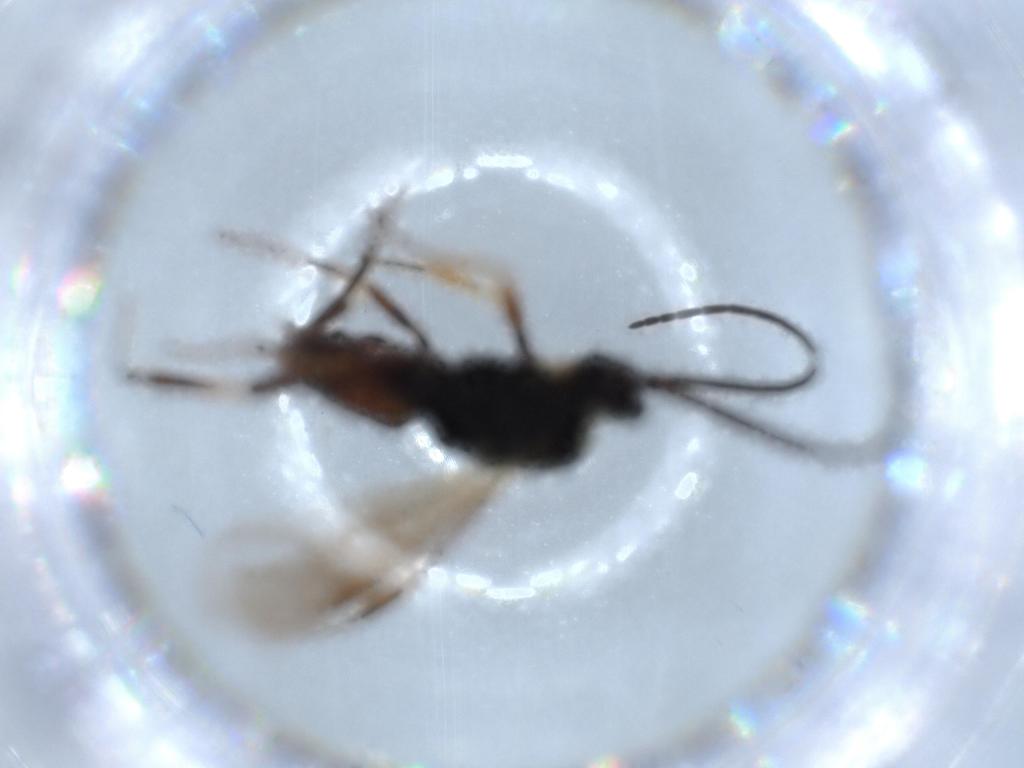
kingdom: Animalia
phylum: Arthropoda
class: Insecta
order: Hymenoptera
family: Braconidae
